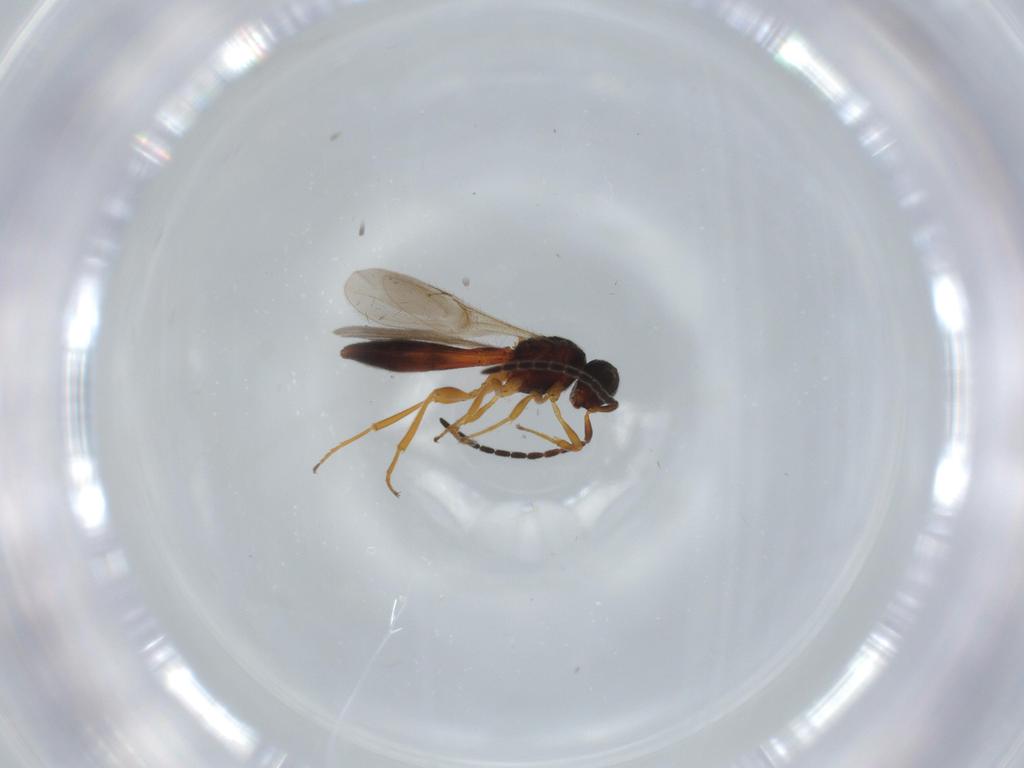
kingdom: Animalia
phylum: Arthropoda
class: Insecta
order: Hymenoptera
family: Scelionidae
